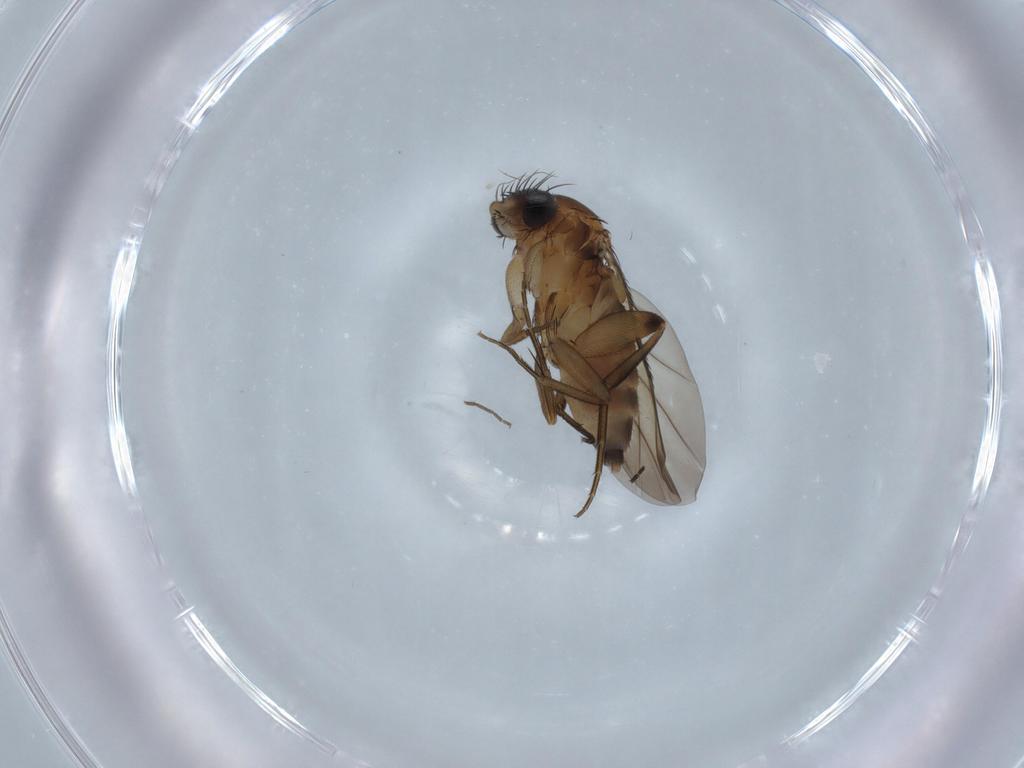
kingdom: Animalia
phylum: Arthropoda
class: Insecta
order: Diptera
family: Phoridae
